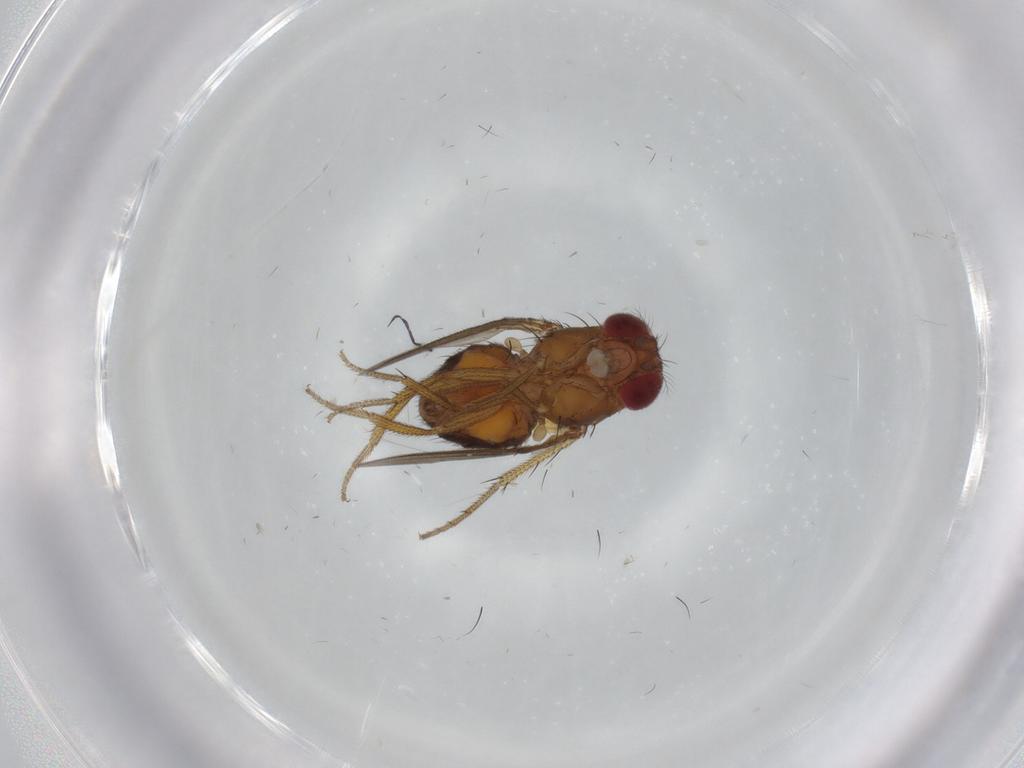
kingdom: Animalia
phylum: Arthropoda
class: Insecta
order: Diptera
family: Drosophilidae
